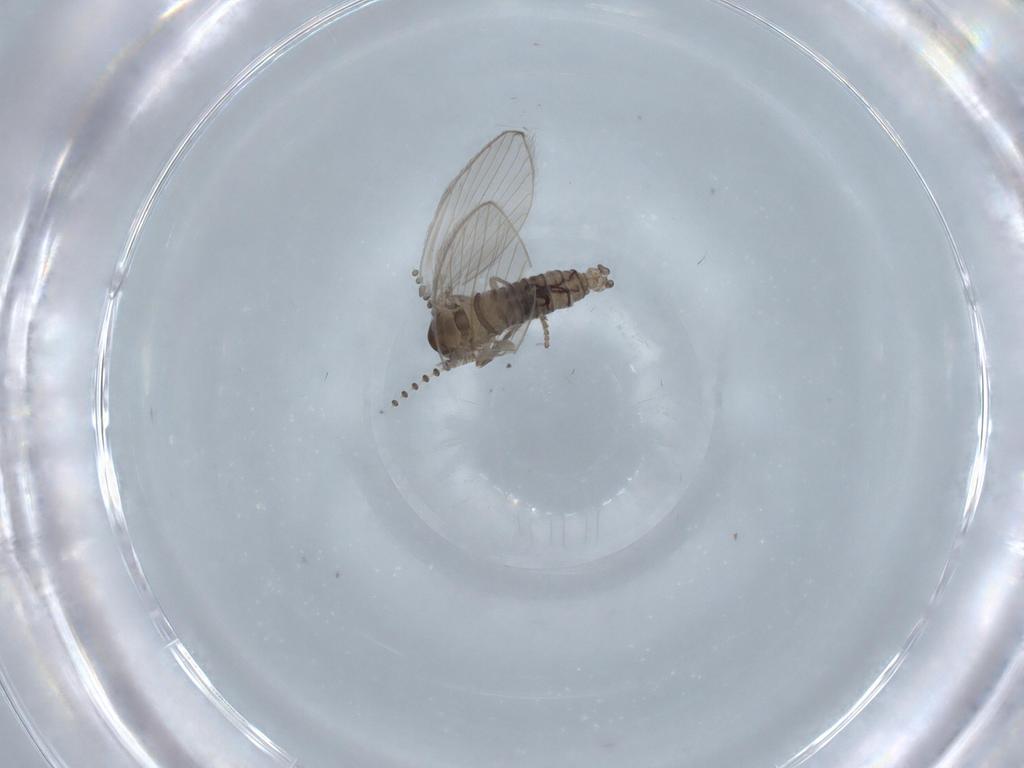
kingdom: Animalia
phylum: Arthropoda
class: Insecta
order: Diptera
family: Psychodidae
